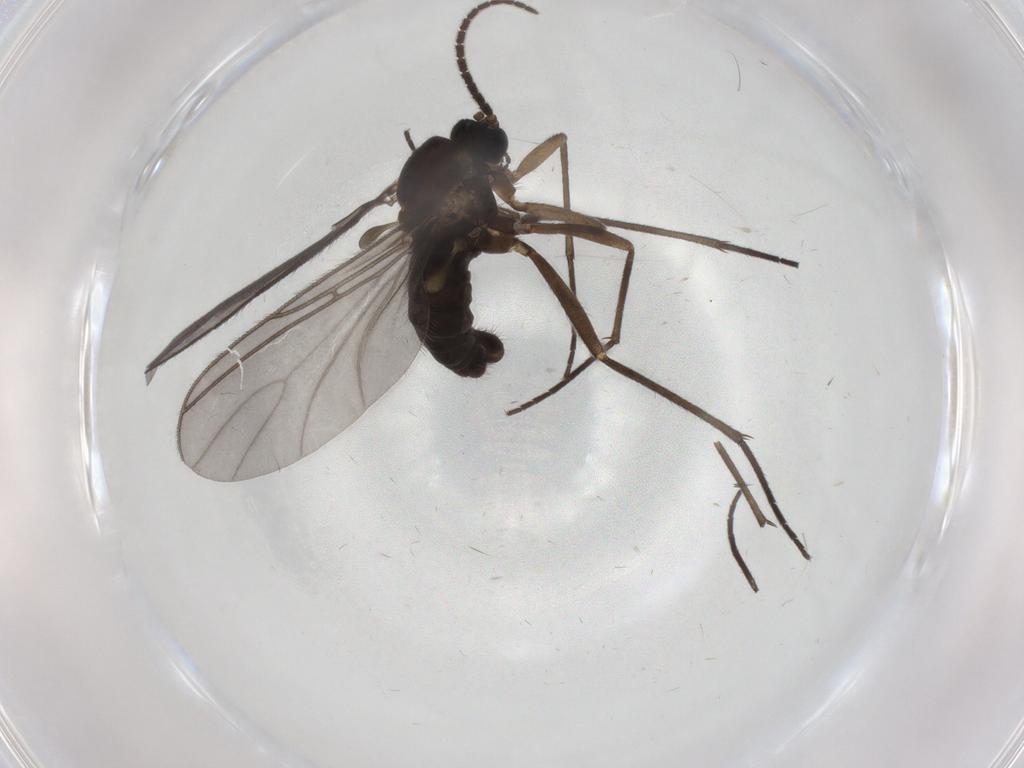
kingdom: Animalia
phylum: Arthropoda
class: Insecta
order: Diptera
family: Sciaridae
